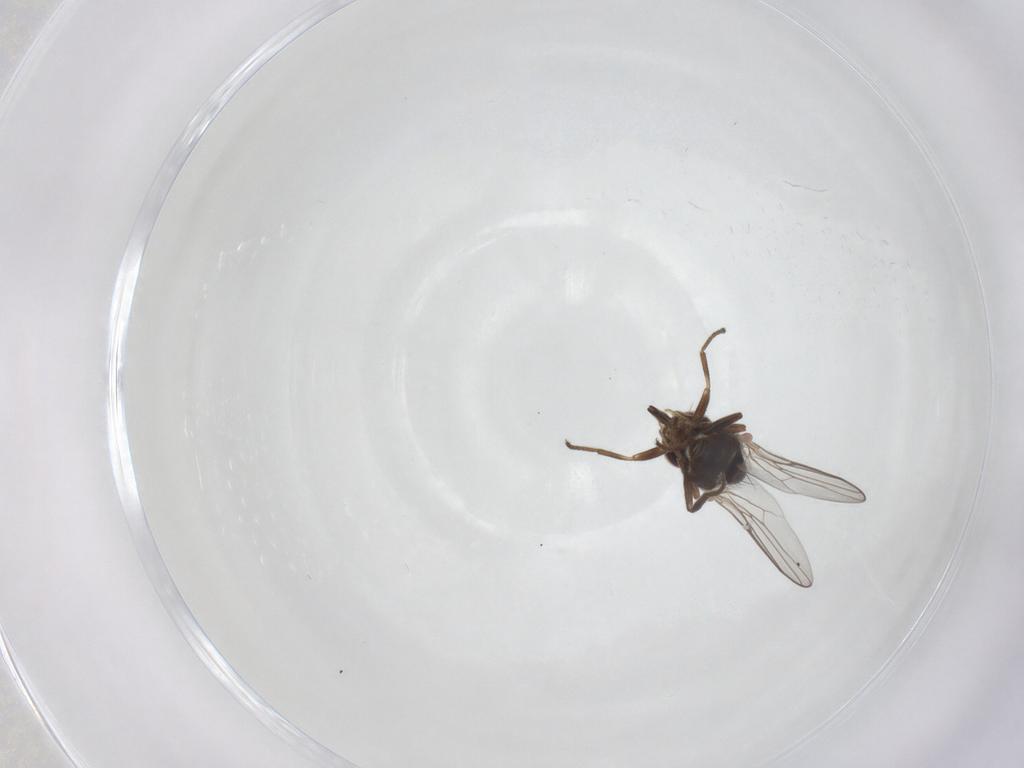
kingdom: Animalia
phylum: Arthropoda
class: Insecta
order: Diptera
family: Chloropidae
